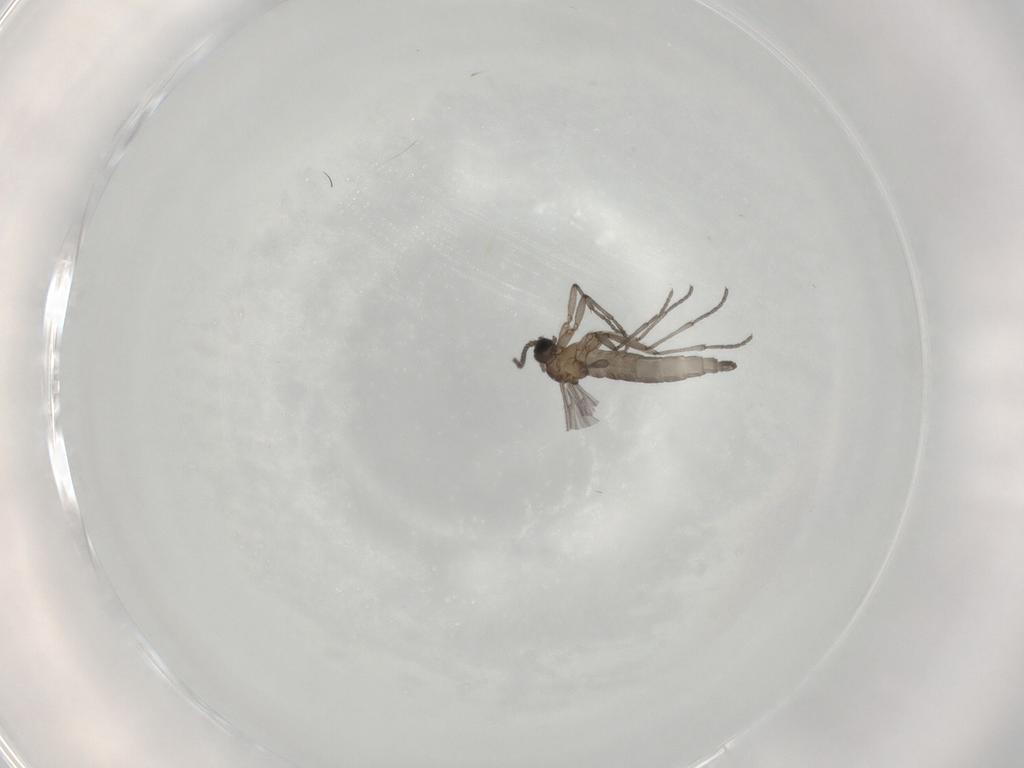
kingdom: Animalia
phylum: Arthropoda
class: Insecta
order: Diptera
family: Sciaridae
